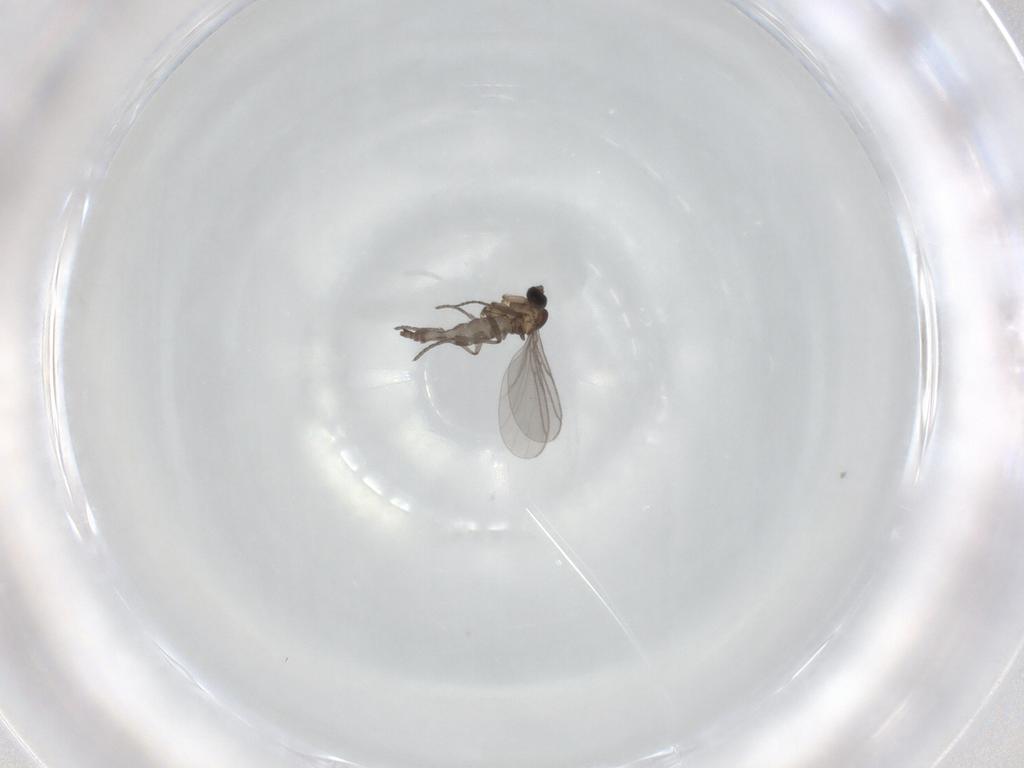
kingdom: Animalia
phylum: Arthropoda
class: Insecta
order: Diptera
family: Sciaridae
